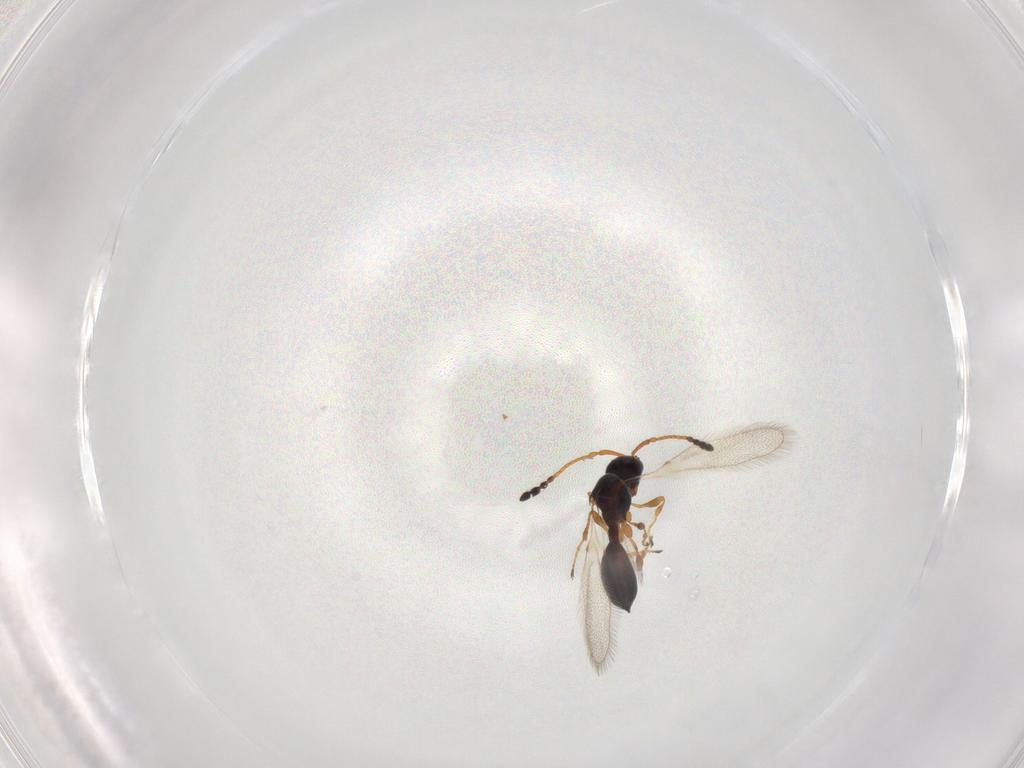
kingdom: Animalia
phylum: Arthropoda
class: Insecta
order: Hymenoptera
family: Diapriidae
